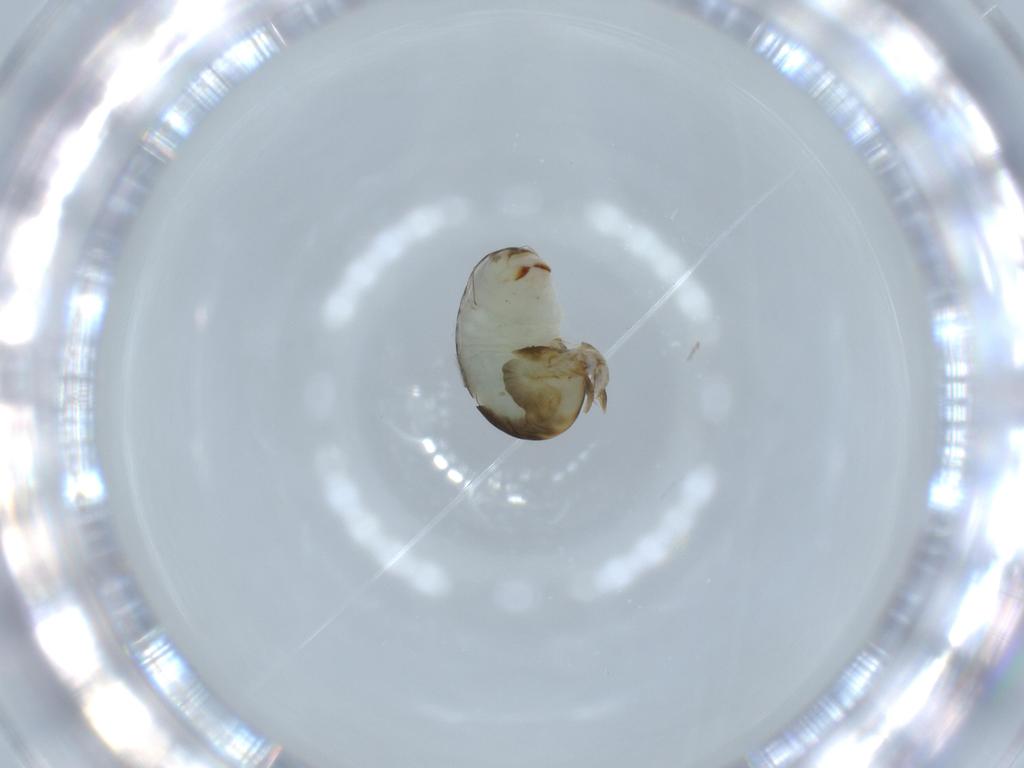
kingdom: Animalia
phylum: Arthropoda
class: Insecta
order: Hymenoptera
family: Dryinidae
